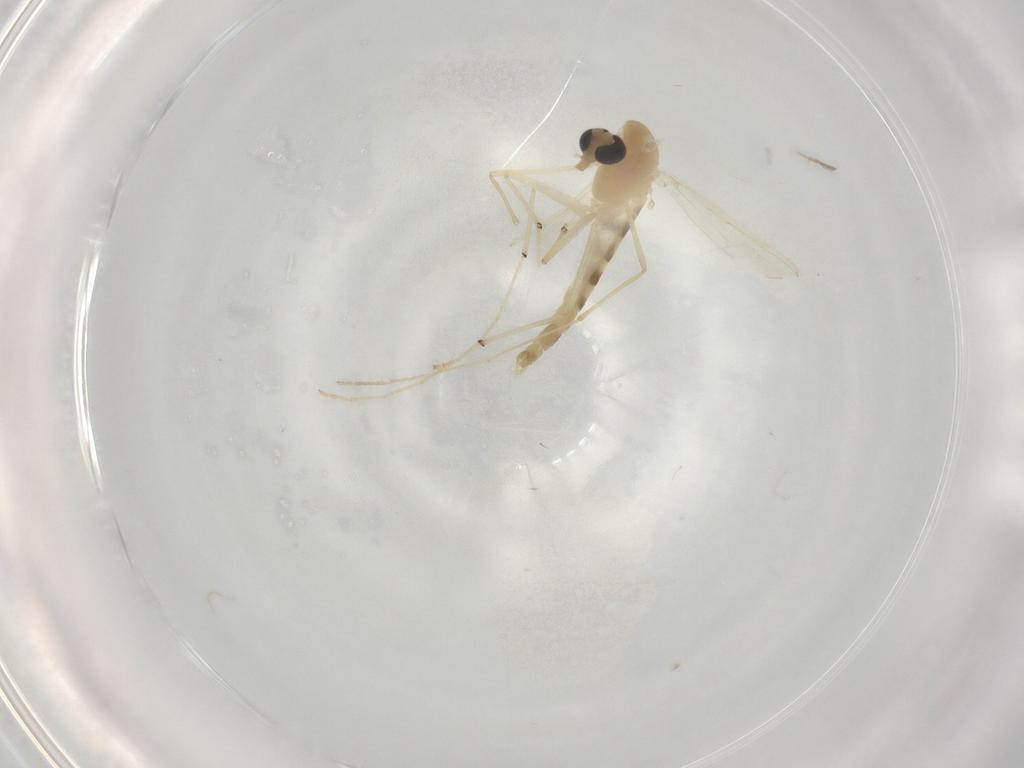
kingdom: Animalia
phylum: Arthropoda
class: Insecta
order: Diptera
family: Chironomidae
